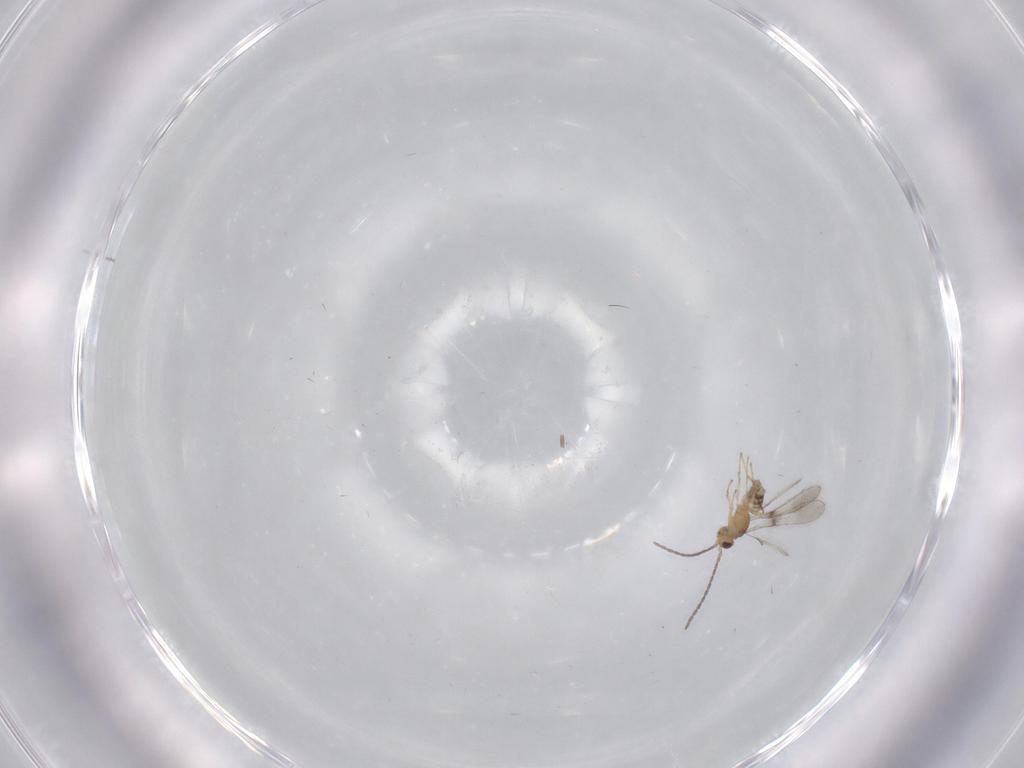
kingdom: Animalia
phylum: Arthropoda
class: Insecta
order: Hymenoptera
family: Mymaridae
